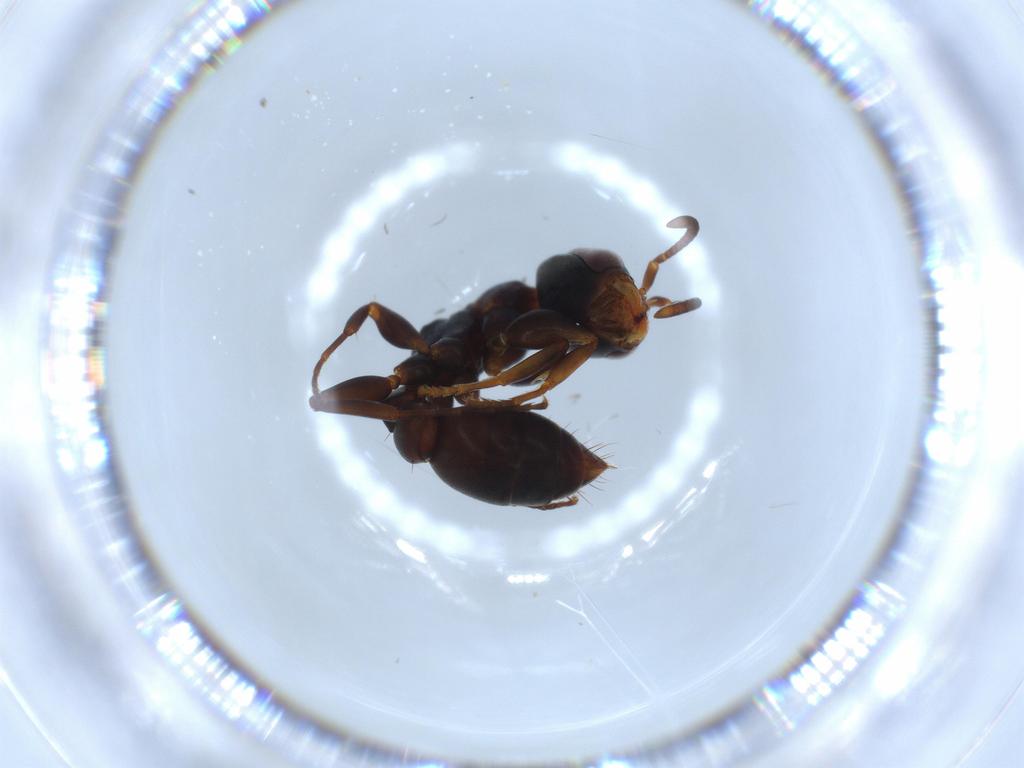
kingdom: Animalia
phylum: Arthropoda
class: Insecta
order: Hymenoptera
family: Formicidae
